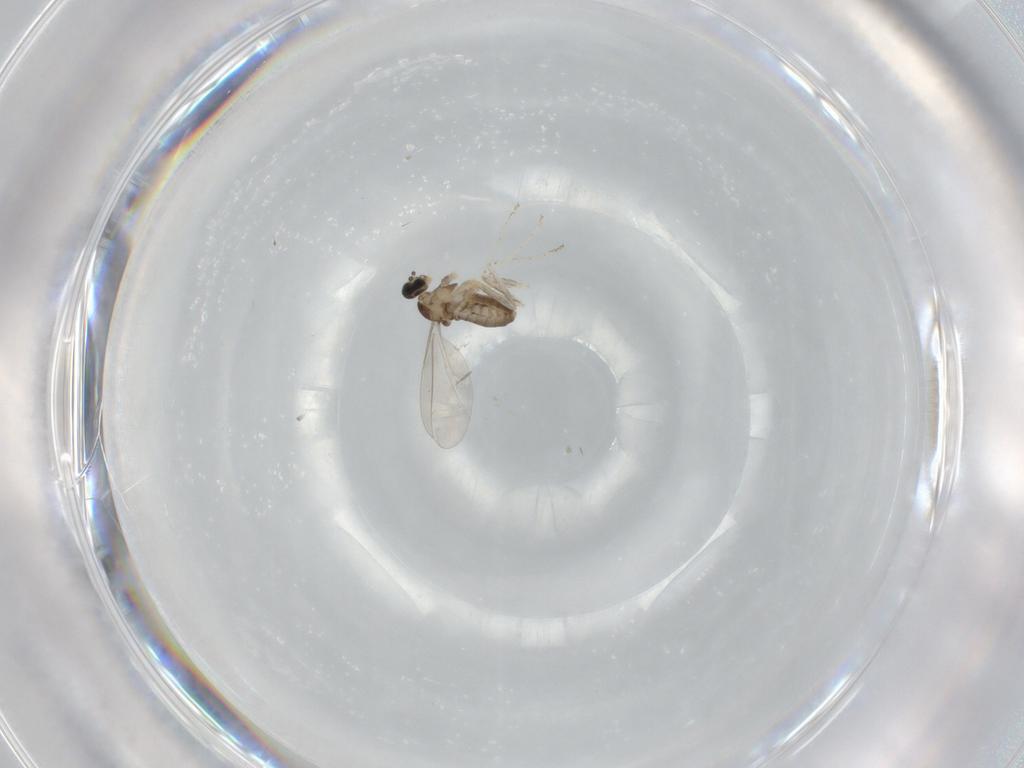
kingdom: Animalia
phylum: Arthropoda
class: Insecta
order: Diptera
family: Cecidomyiidae
